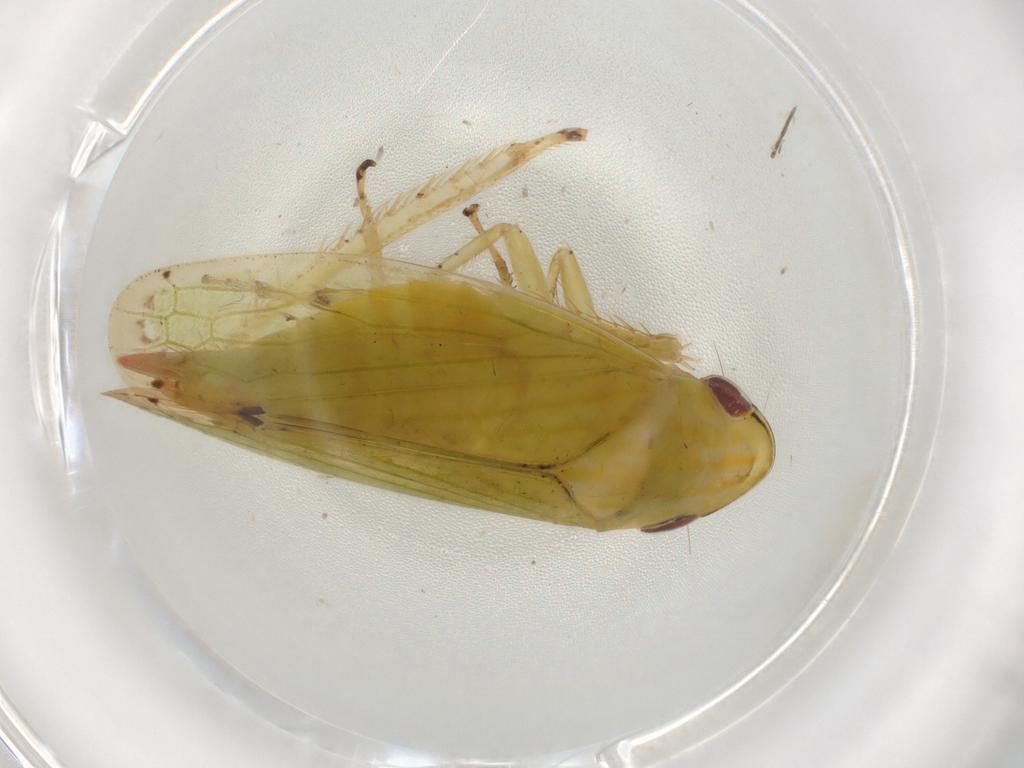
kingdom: Animalia
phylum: Arthropoda
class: Insecta
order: Hemiptera
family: Cicadellidae
